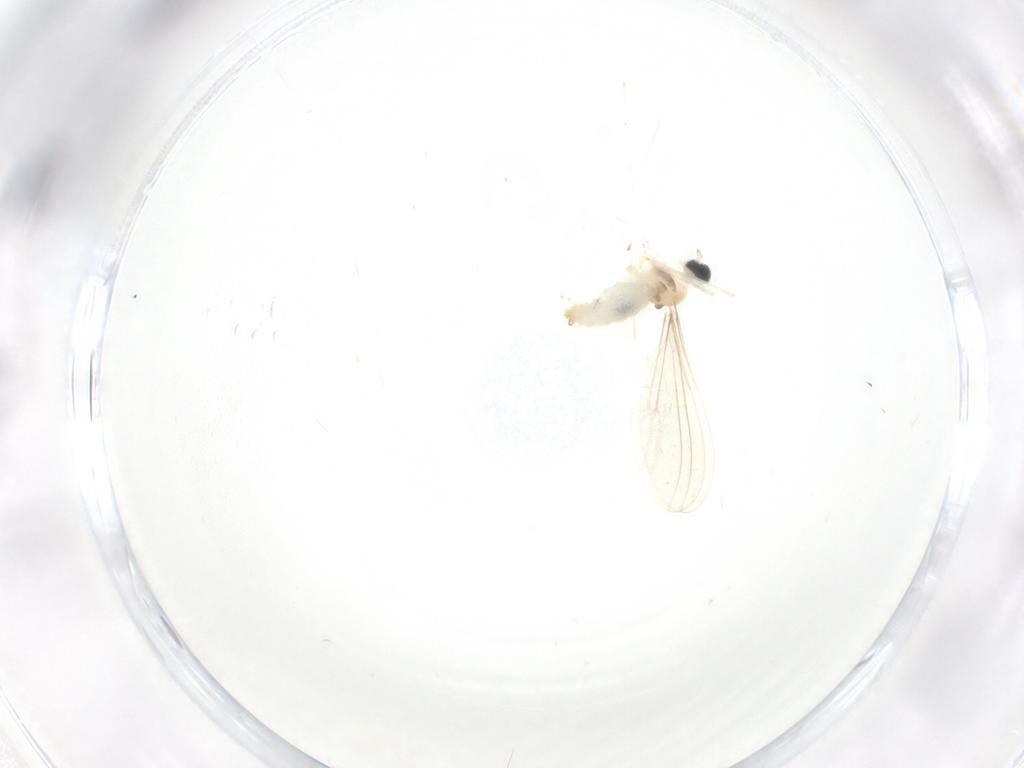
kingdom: Animalia
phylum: Arthropoda
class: Insecta
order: Diptera
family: Cecidomyiidae
